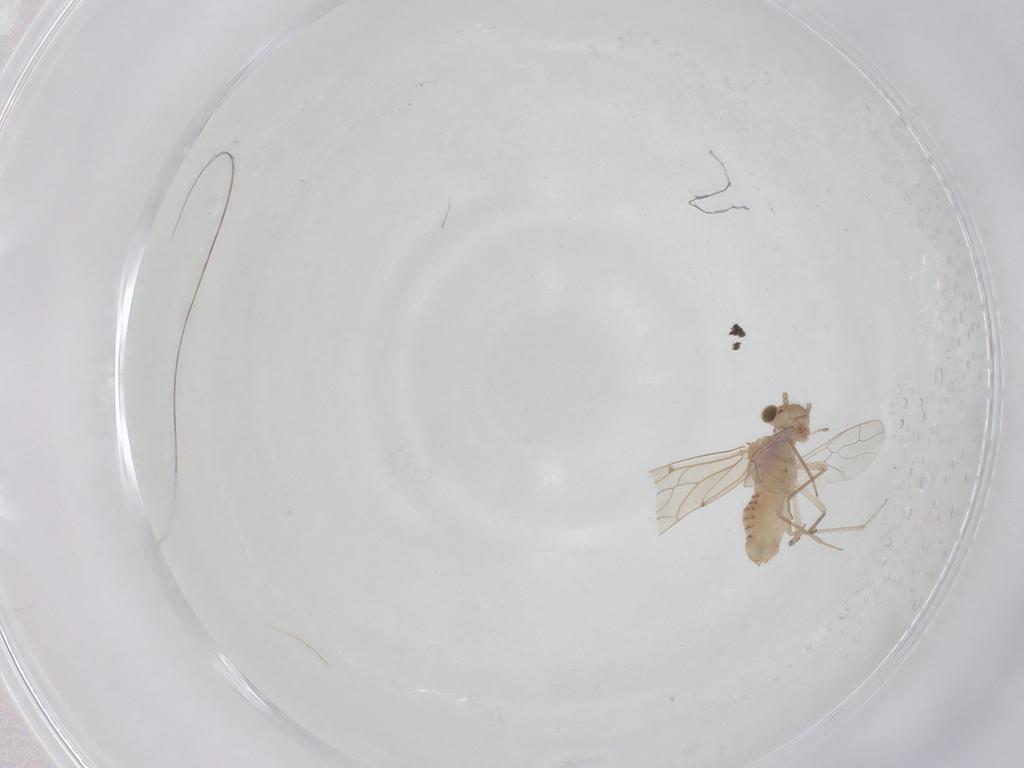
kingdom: Animalia
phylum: Arthropoda
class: Insecta
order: Psocodea
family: Lachesillidae
